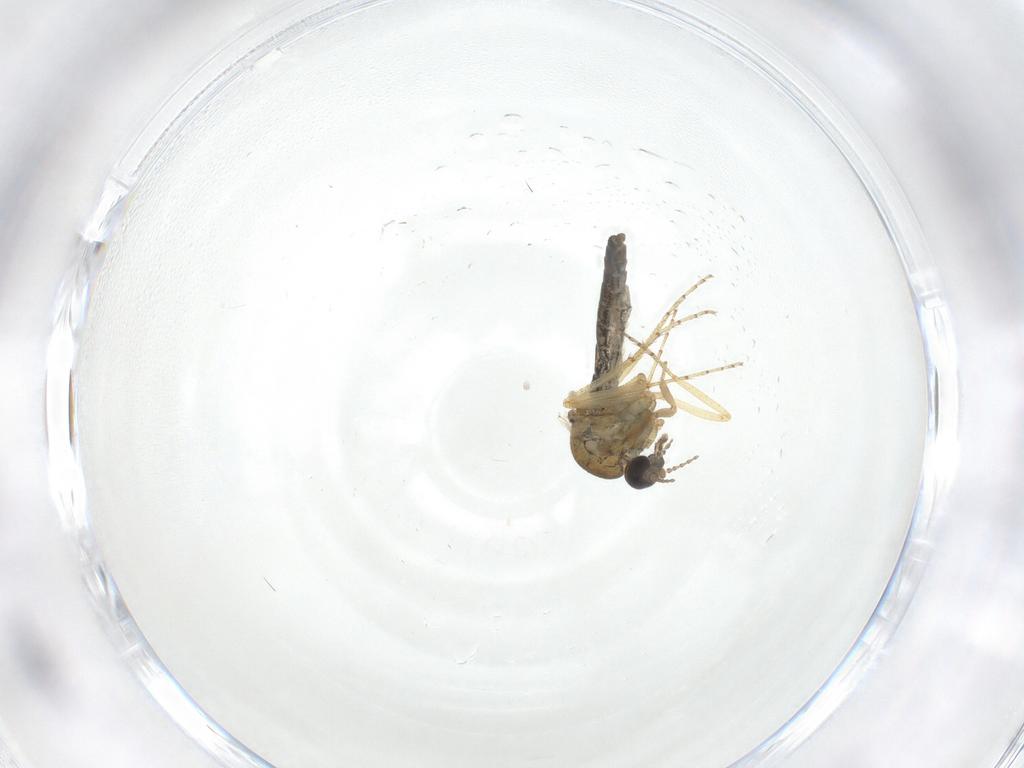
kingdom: Animalia
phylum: Arthropoda
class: Insecta
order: Diptera
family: Ceratopogonidae
